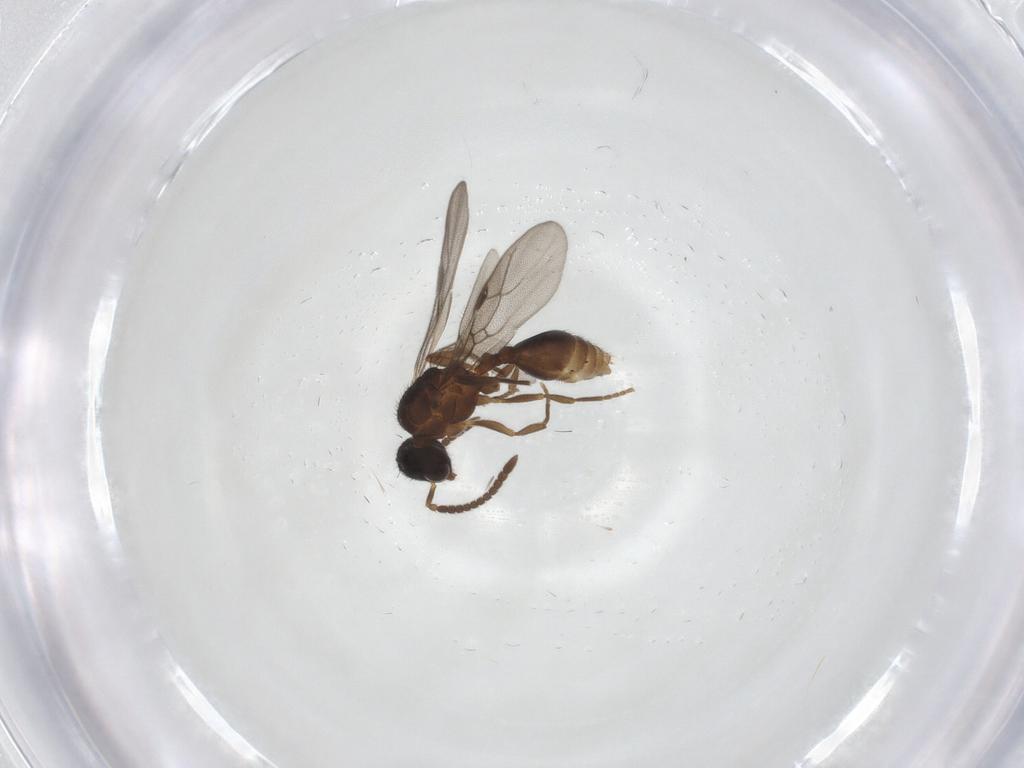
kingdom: Animalia
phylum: Arthropoda
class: Insecta
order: Hymenoptera
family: Formicidae
